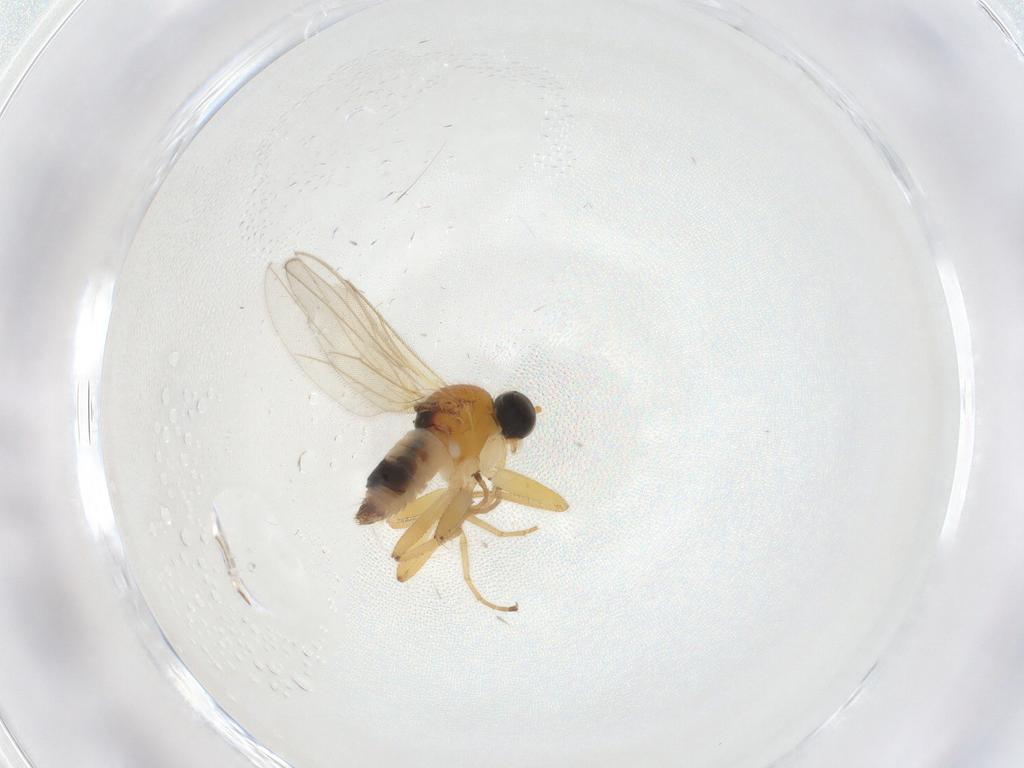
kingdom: Animalia
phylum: Arthropoda
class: Insecta
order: Diptera
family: Hybotidae
